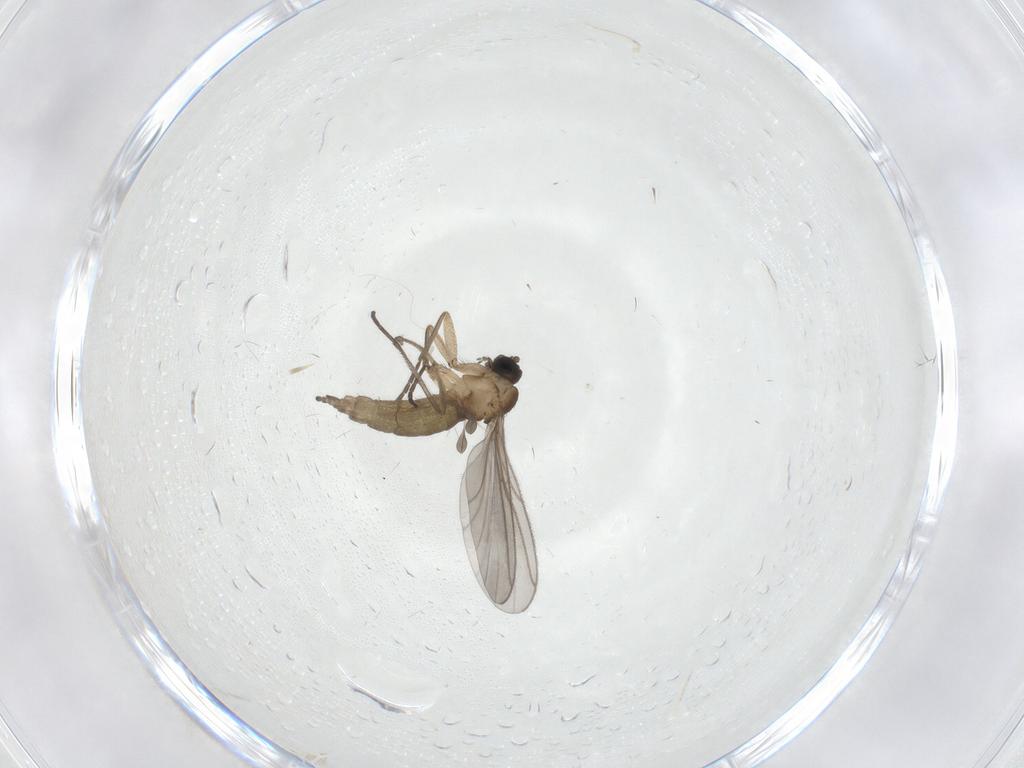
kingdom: Animalia
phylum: Arthropoda
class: Insecta
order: Diptera
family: Sciaridae
